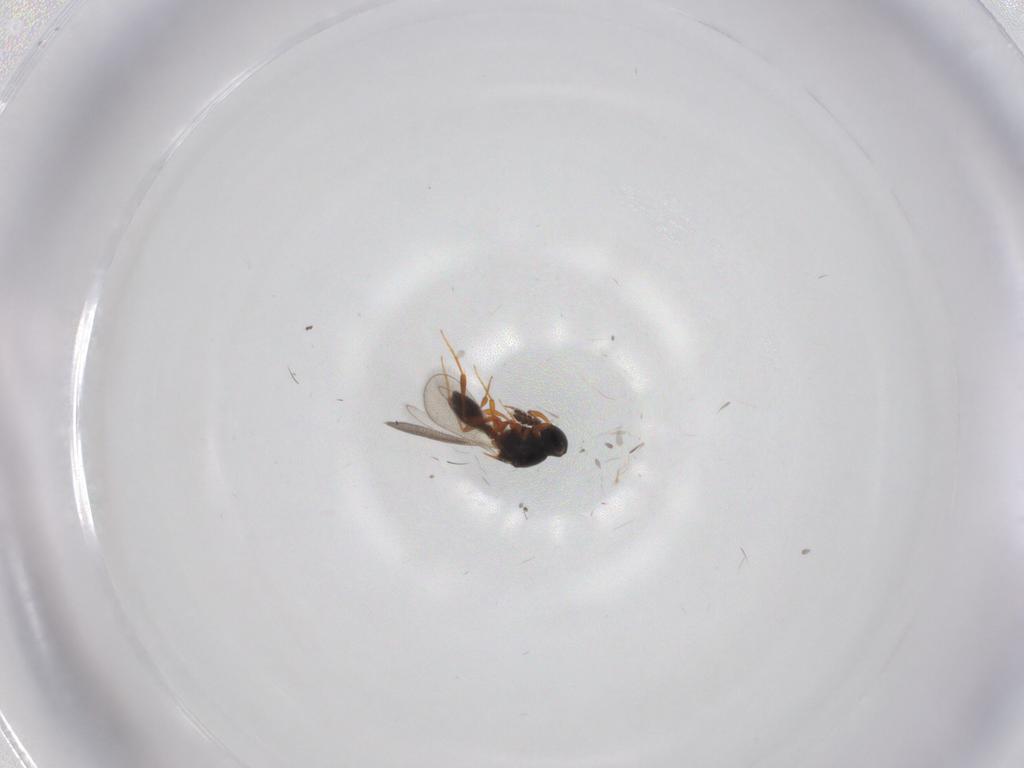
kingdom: Animalia
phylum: Arthropoda
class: Insecta
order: Hymenoptera
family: Platygastridae
